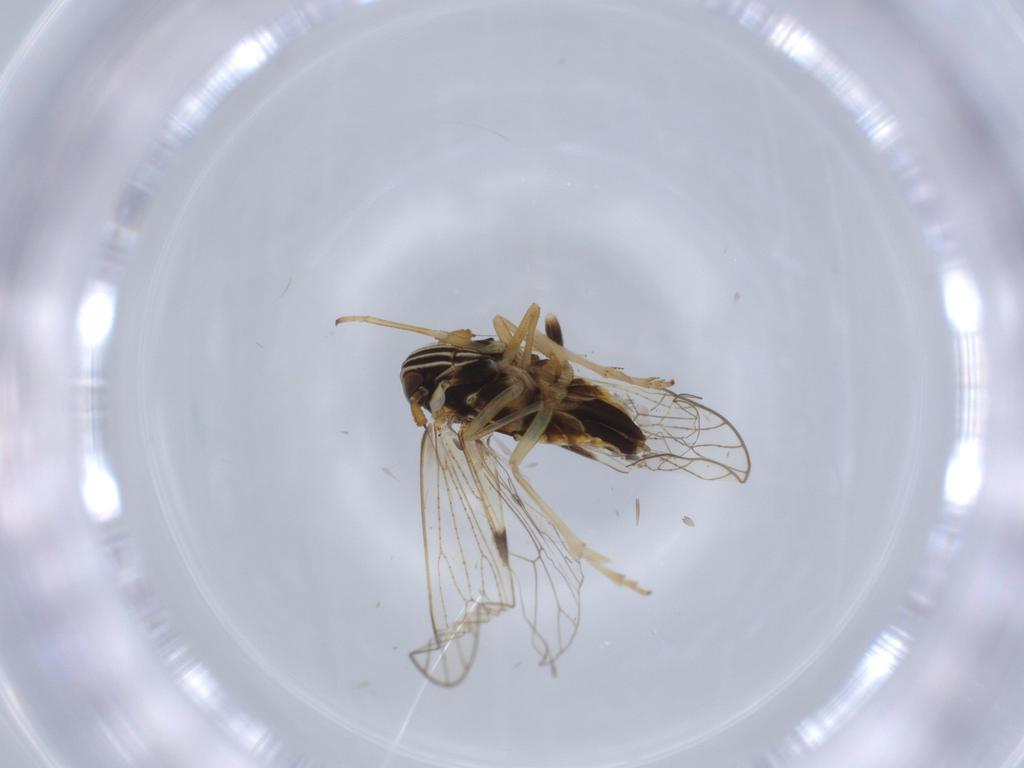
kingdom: Animalia
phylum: Arthropoda
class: Insecta
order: Hemiptera
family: Cercopidae
